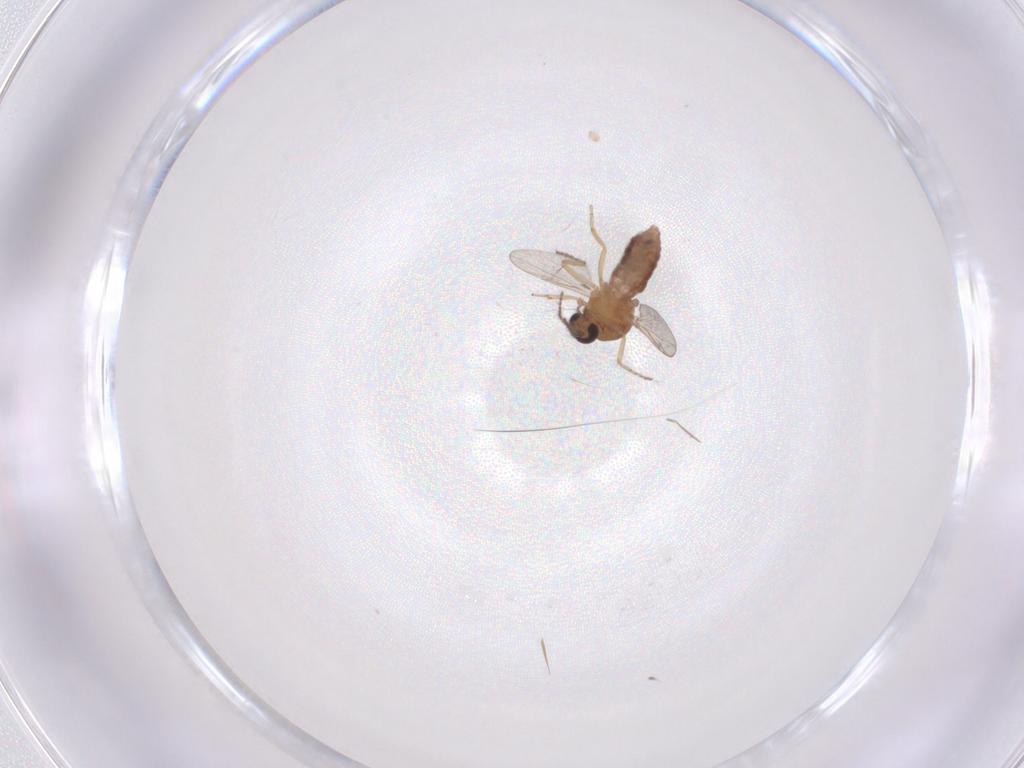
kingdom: Animalia
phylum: Arthropoda
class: Insecta
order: Diptera
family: Ceratopogonidae
